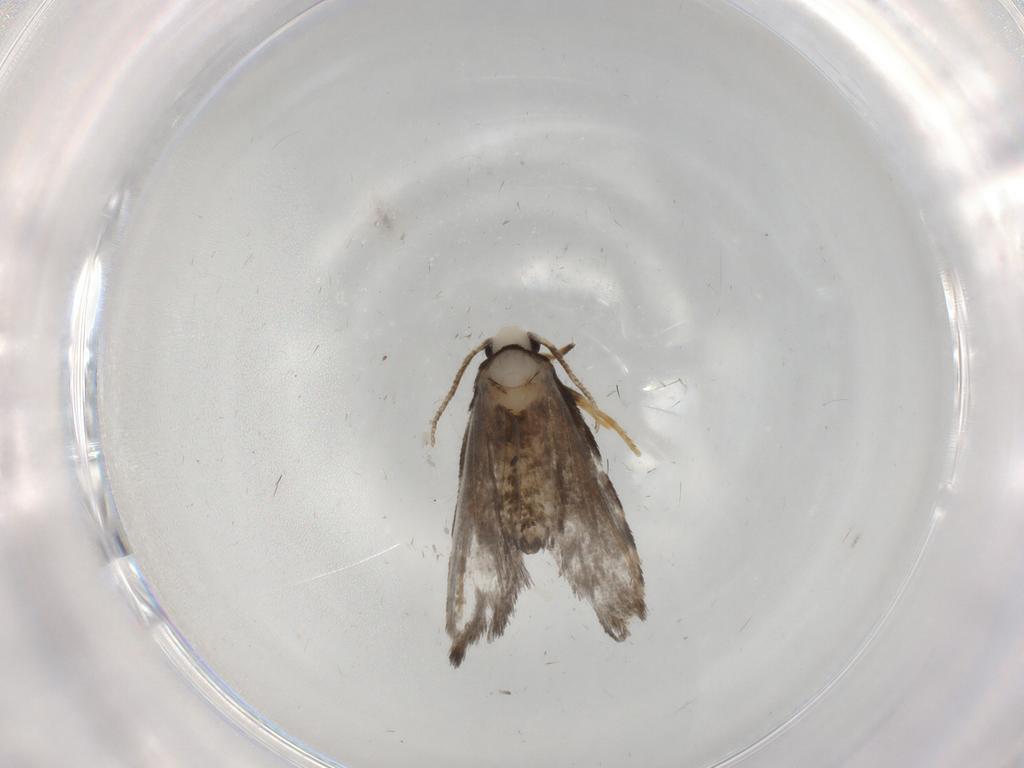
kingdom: Animalia
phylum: Arthropoda
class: Insecta
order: Lepidoptera
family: Psychidae
